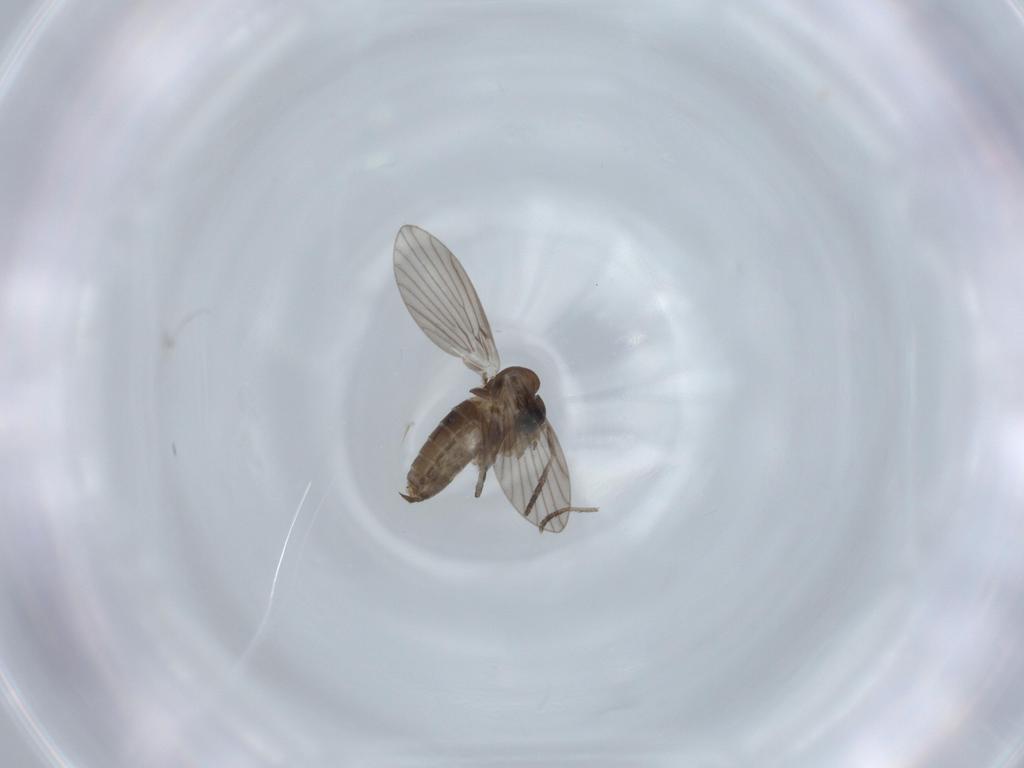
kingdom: Animalia
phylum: Arthropoda
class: Insecta
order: Diptera
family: Psychodidae
